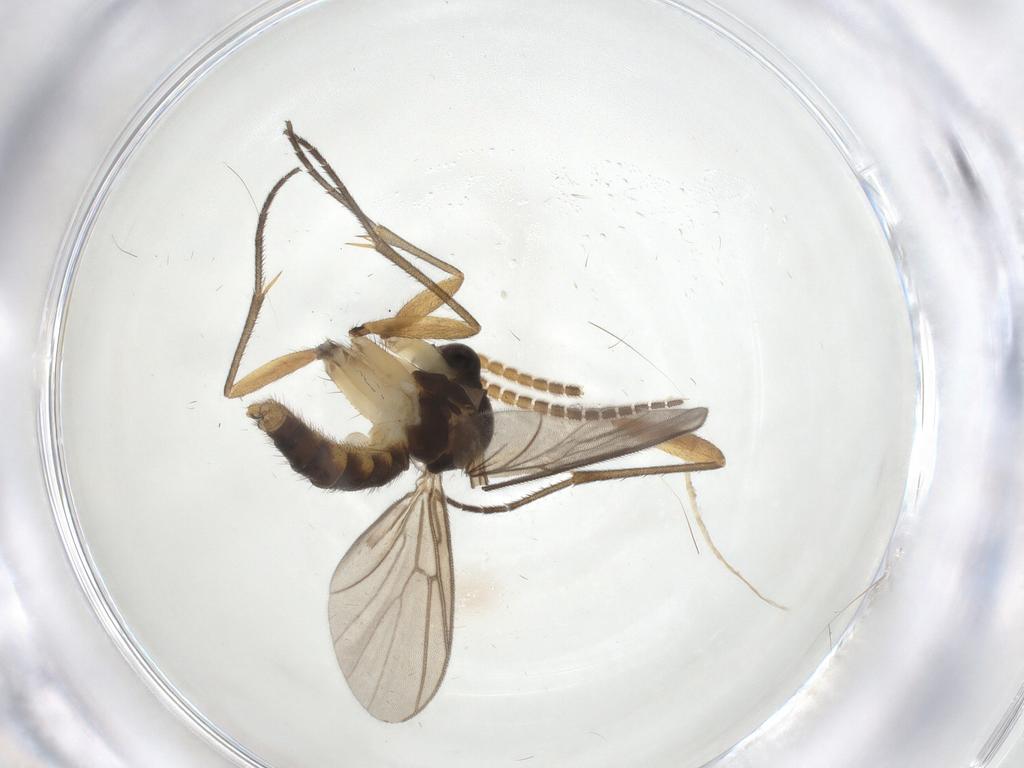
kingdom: Animalia
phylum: Arthropoda
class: Insecta
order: Diptera
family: Mycetophilidae
